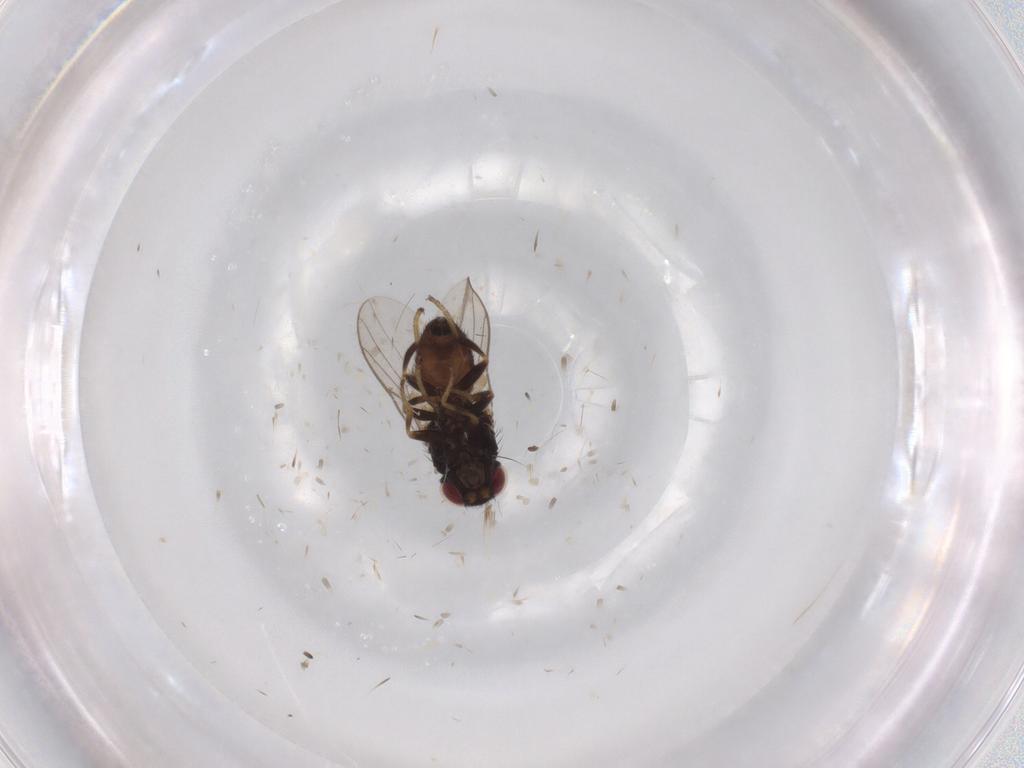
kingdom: Animalia
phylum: Arthropoda
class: Insecta
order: Diptera
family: Chloropidae
